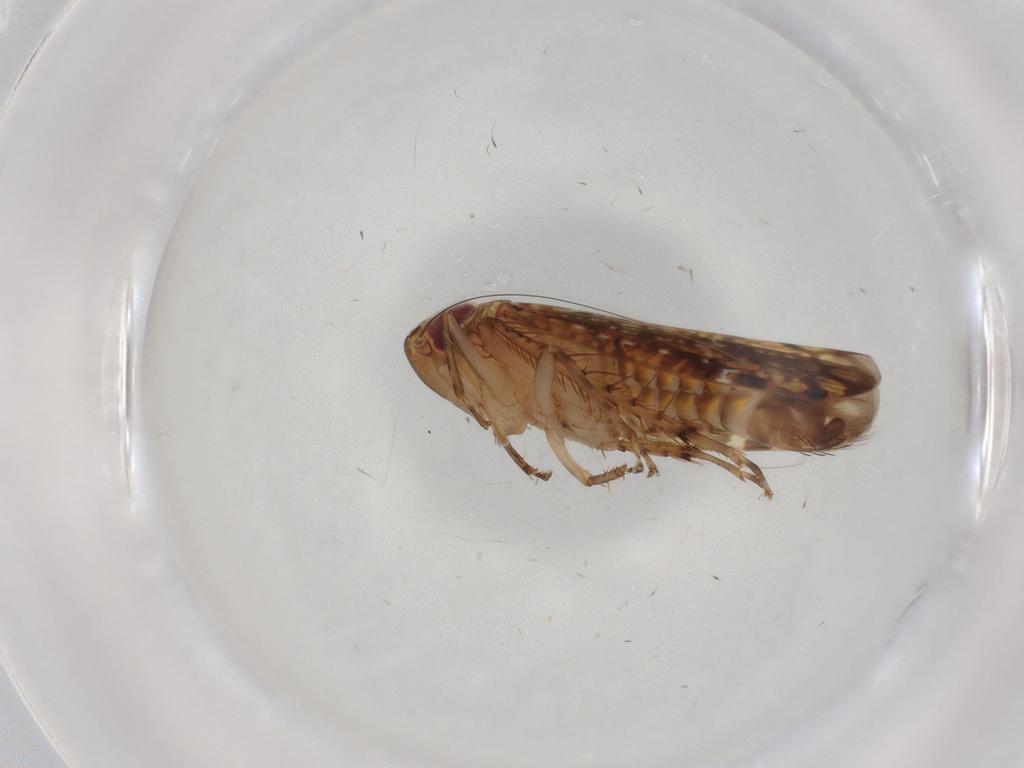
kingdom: Animalia
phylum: Arthropoda
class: Insecta
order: Hemiptera
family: Cicadellidae
